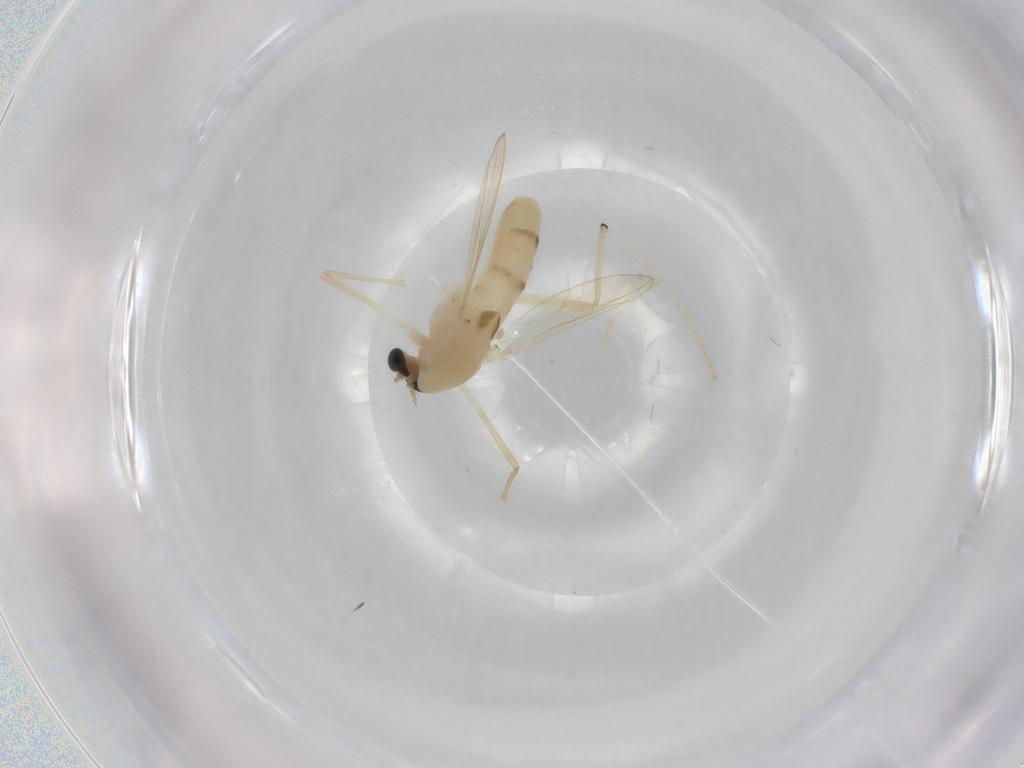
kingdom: Animalia
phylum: Arthropoda
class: Insecta
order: Diptera
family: Chironomidae
